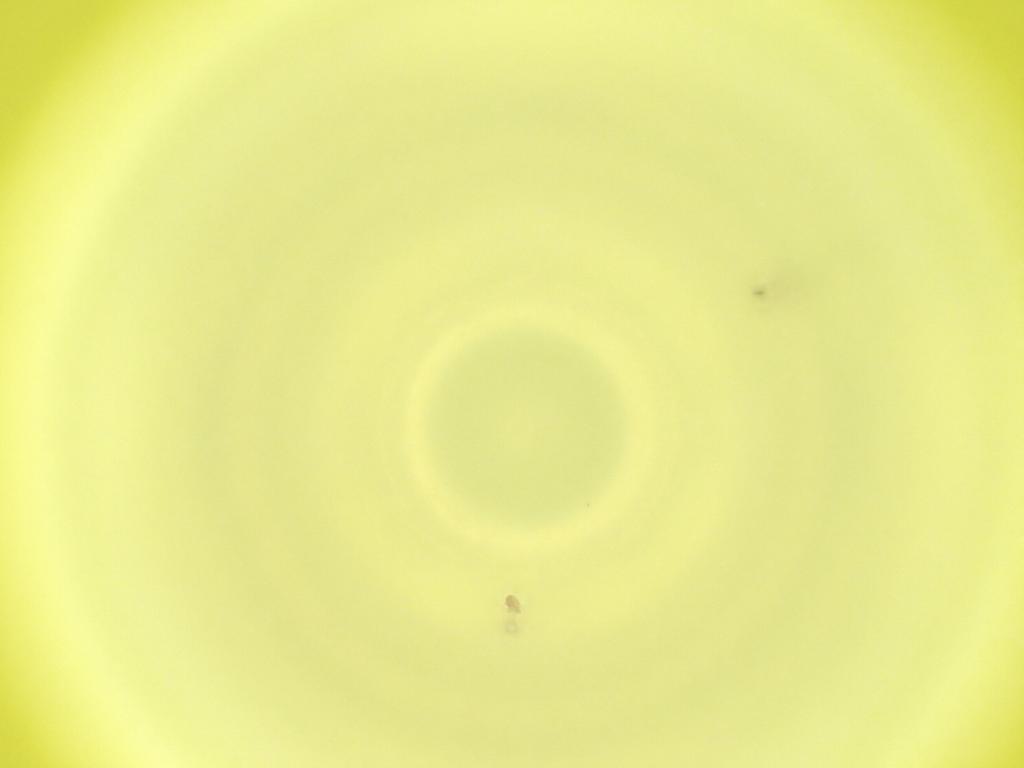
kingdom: Animalia
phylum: Arthropoda
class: Insecta
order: Diptera
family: Cecidomyiidae
